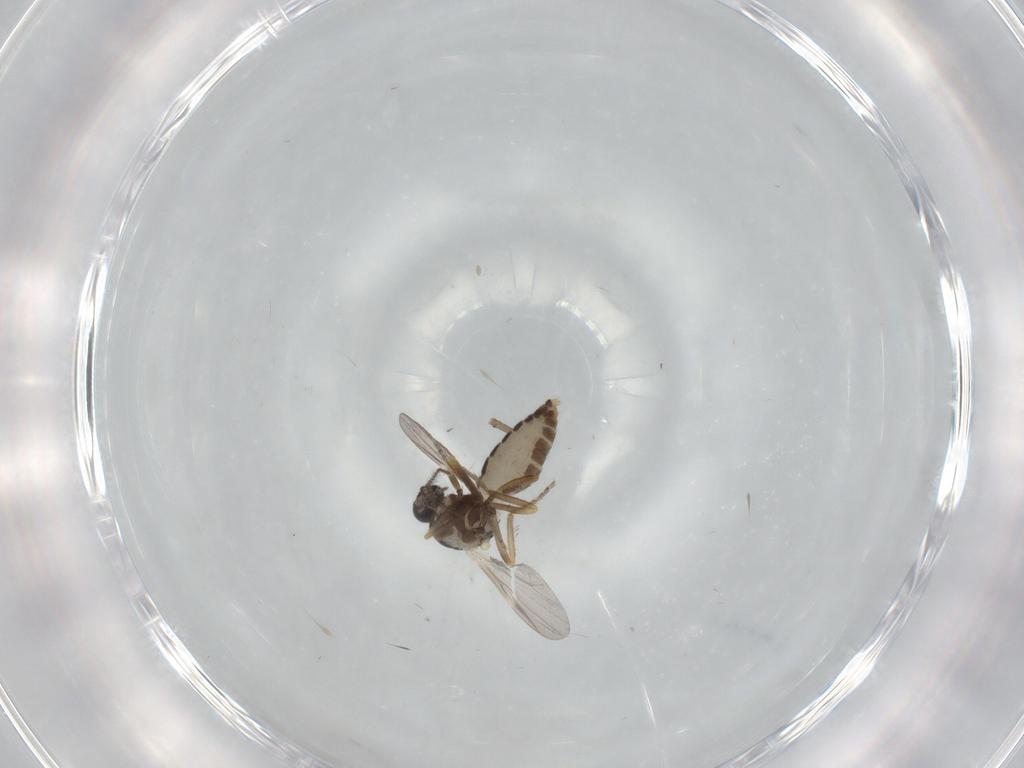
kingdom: Animalia
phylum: Arthropoda
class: Insecta
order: Diptera
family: Ceratopogonidae
